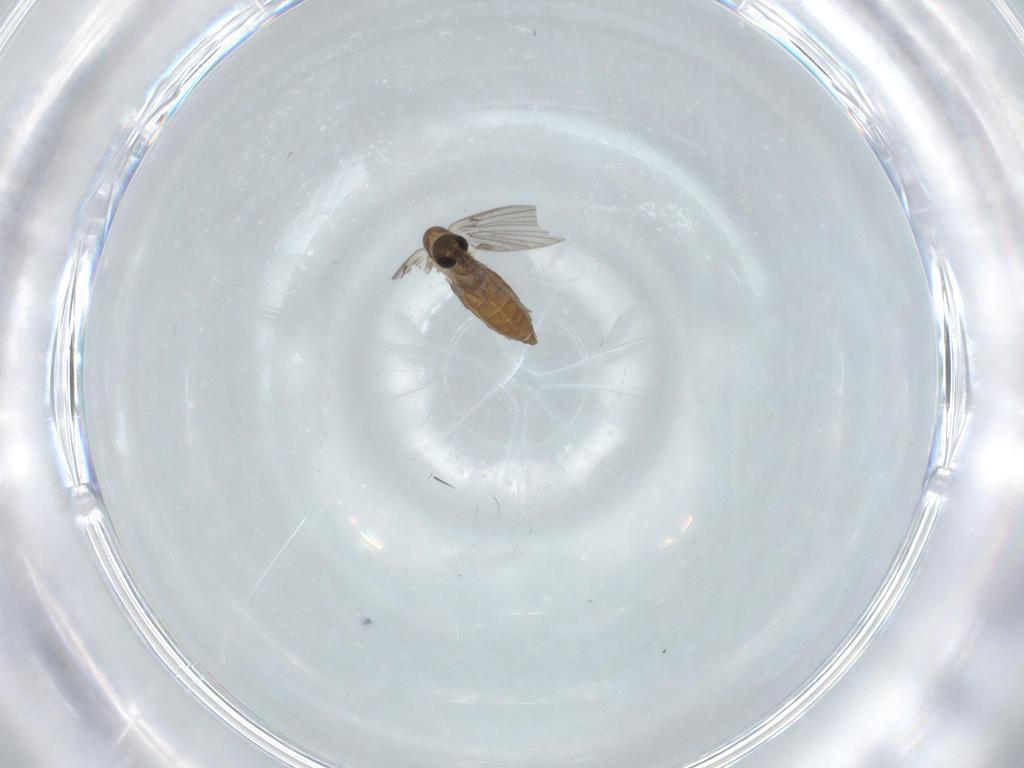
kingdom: Animalia
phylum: Arthropoda
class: Insecta
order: Diptera
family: Psychodidae
